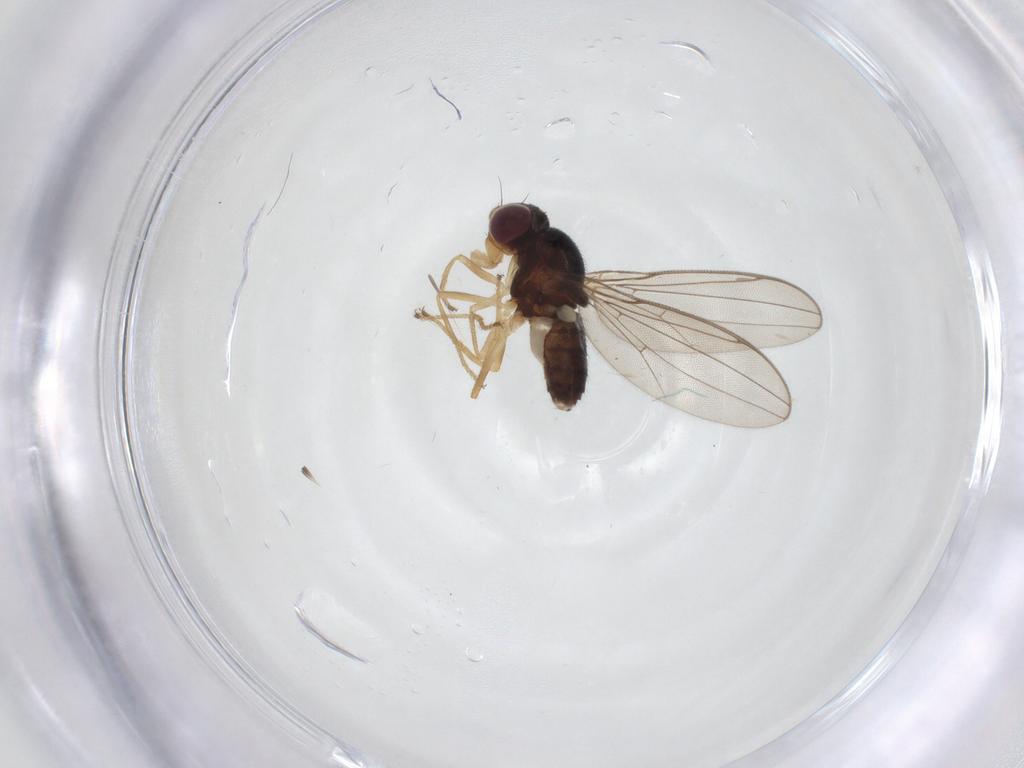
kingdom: Animalia
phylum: Arthropoda
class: Insecta
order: Diptera
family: Asteiidae
